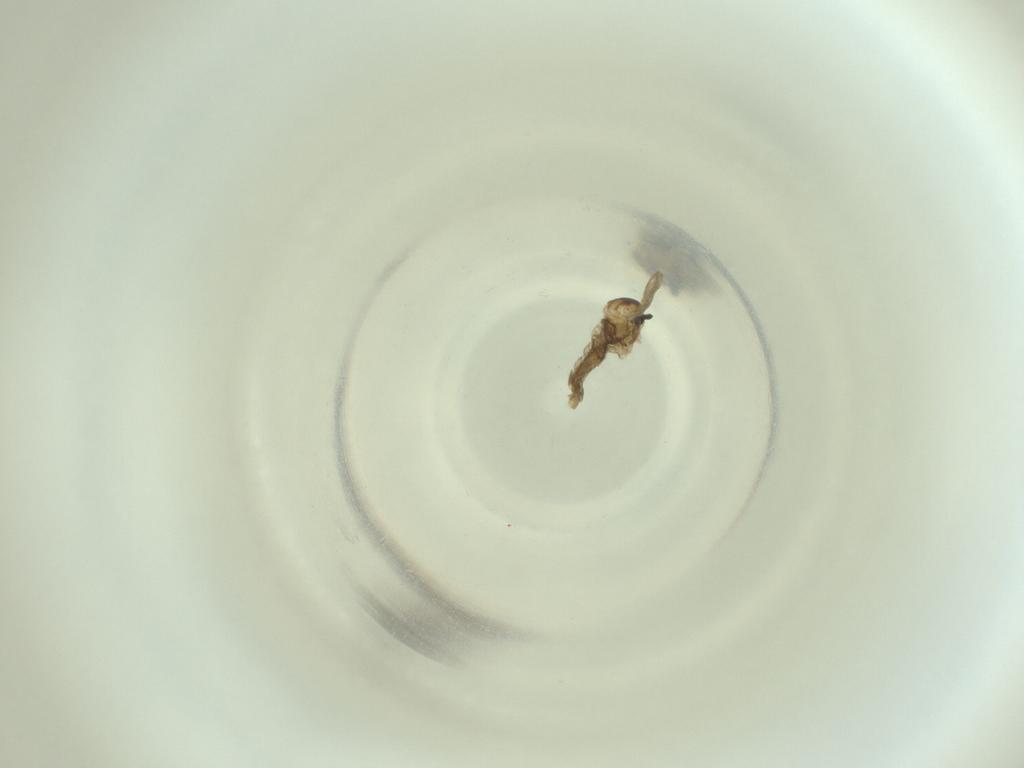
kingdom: Animalia
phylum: Arthropoda
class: Insecta
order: Diptera
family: Cecidomyiidae
